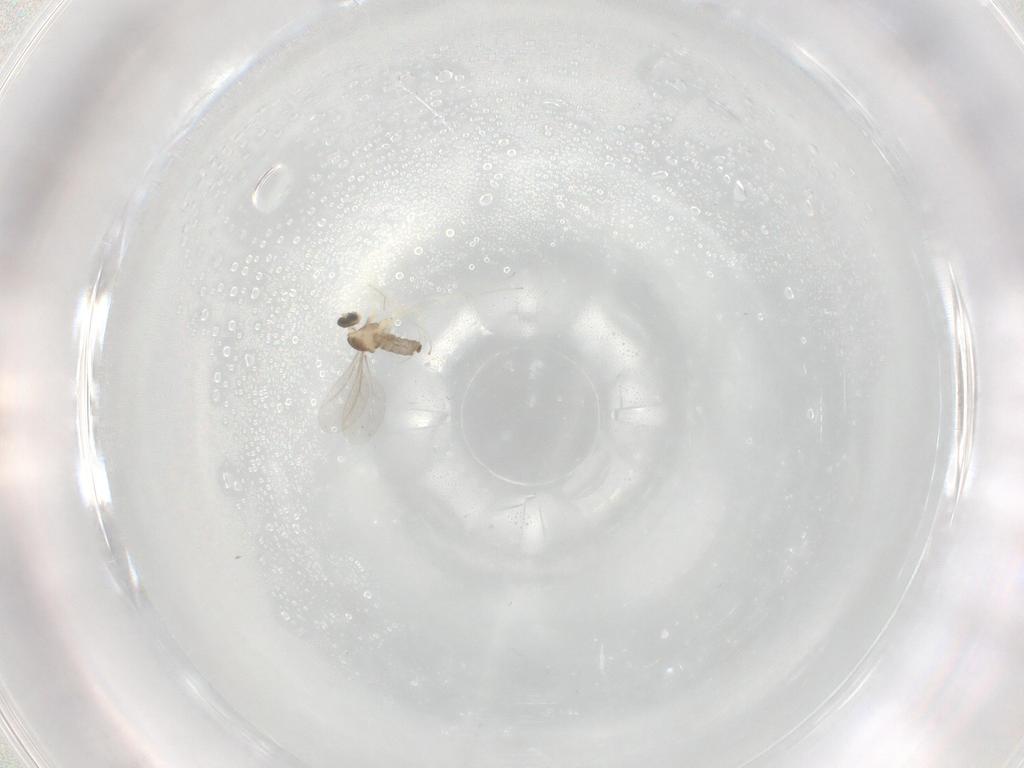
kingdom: Animalia
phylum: Arthropoda
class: Insecta
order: Diptera
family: Cecidomyiidae
